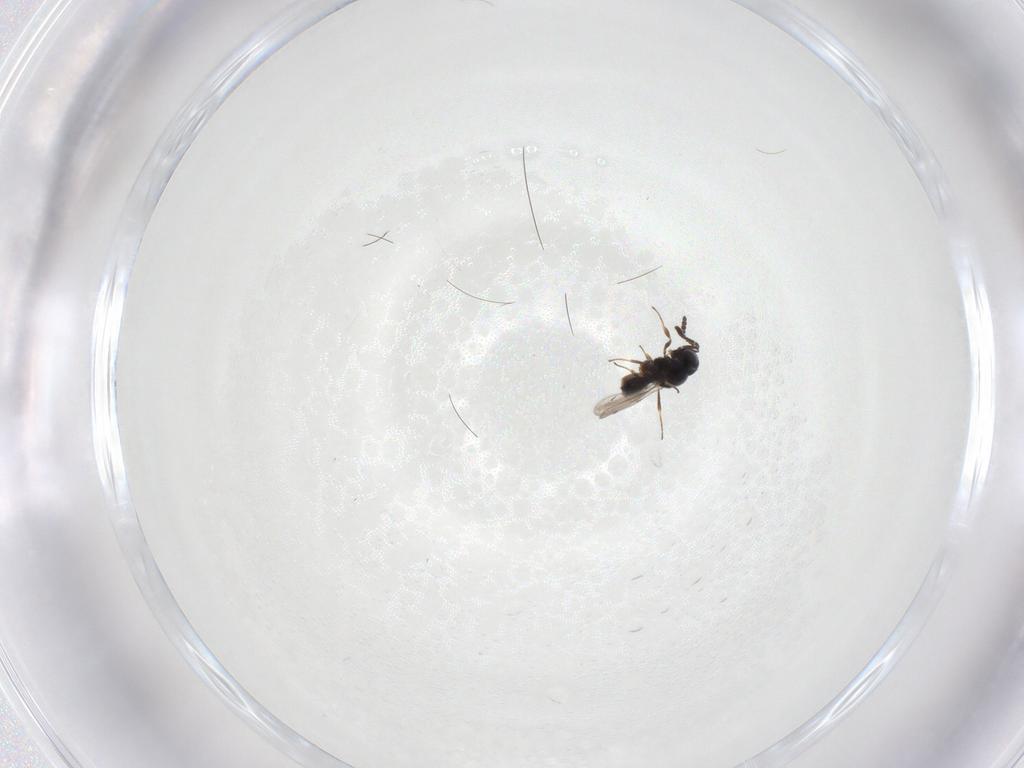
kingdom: Animalia
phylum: Arthropoda
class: Insecta
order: Hymenoptera
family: Scelionidae
